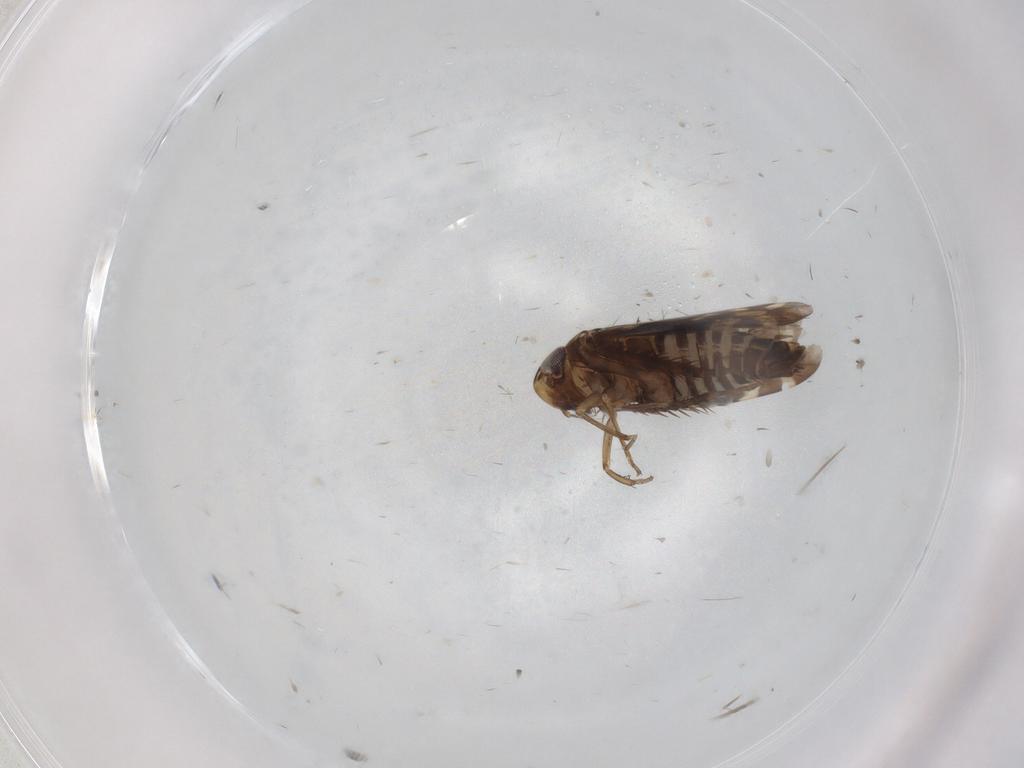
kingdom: Animalia
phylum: Arthropoda
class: Insecta
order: Hemiptera
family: Cicadellidae
